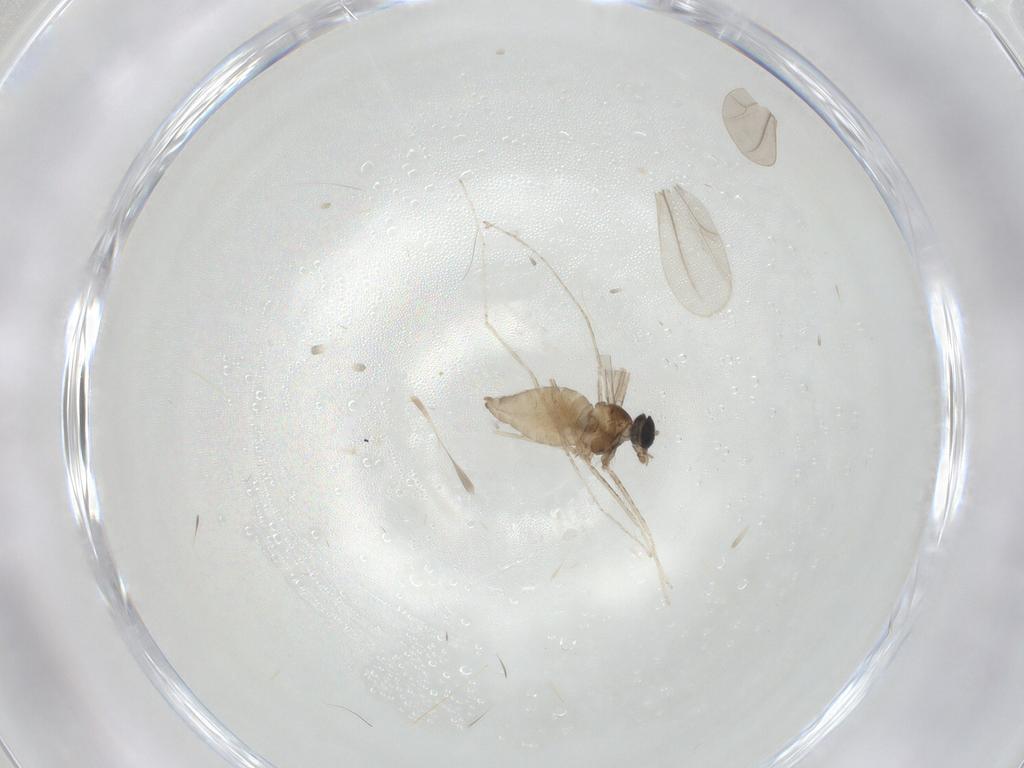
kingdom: Animalia
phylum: Arthropoda
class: Insecta
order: Diptera
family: Cecidomyiidae
